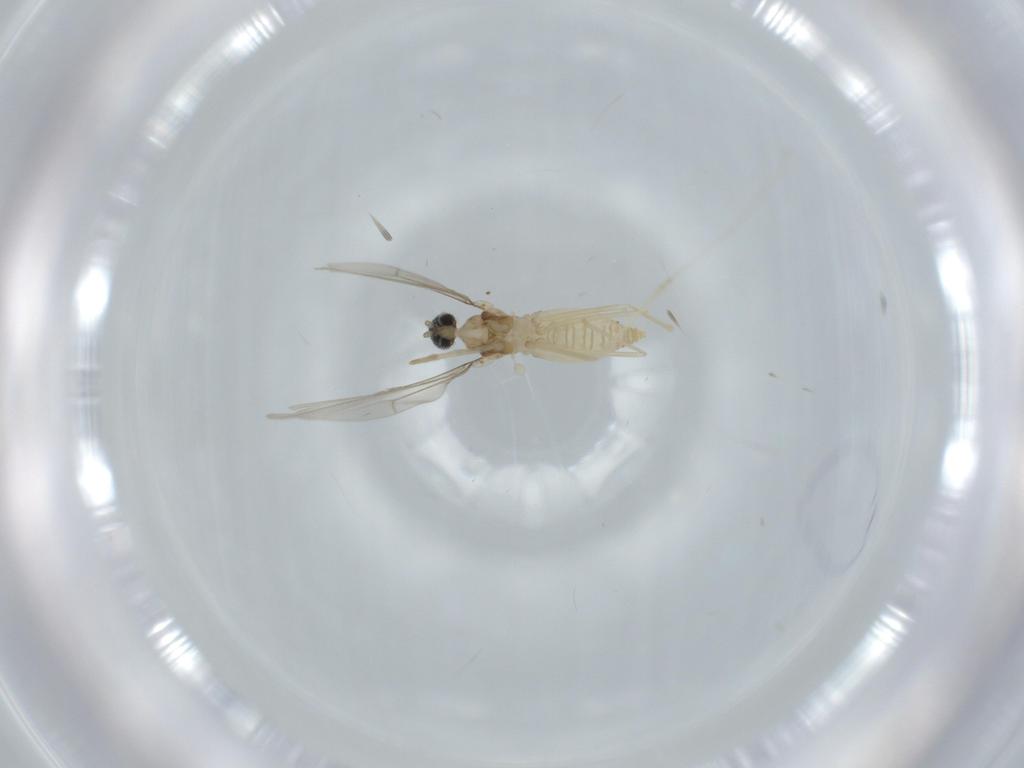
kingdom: Animalia
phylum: Arthropoda
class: Insecta
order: Diptera
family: Cecidomyiidae
